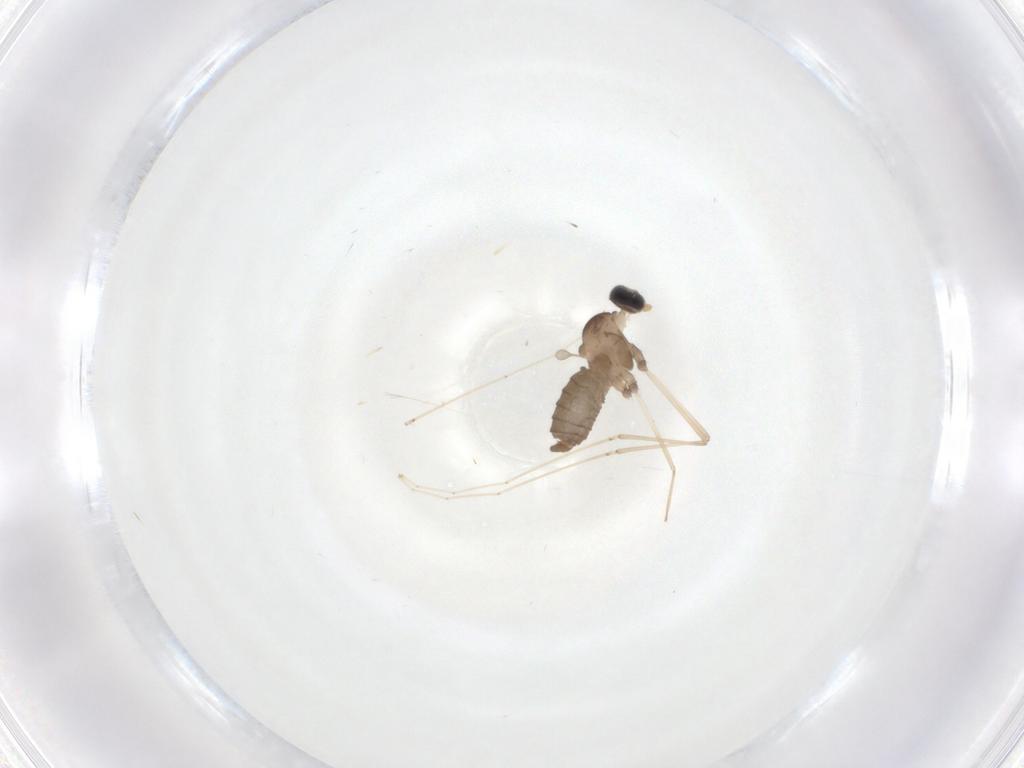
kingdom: Animalia
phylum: Arthropoda
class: Insecta
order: Diptera
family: Cecidomyiidae
